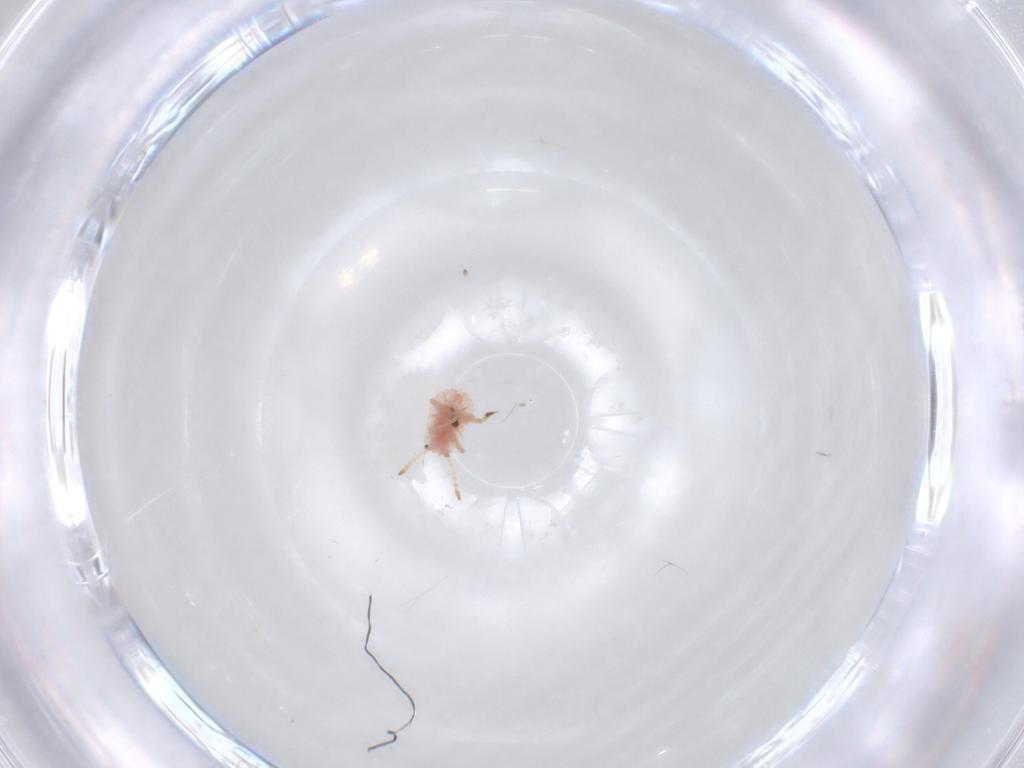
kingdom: Animalia
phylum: Arthropoda
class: Insecta
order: Hemiptera
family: Coccoidea_incertae_sedis
